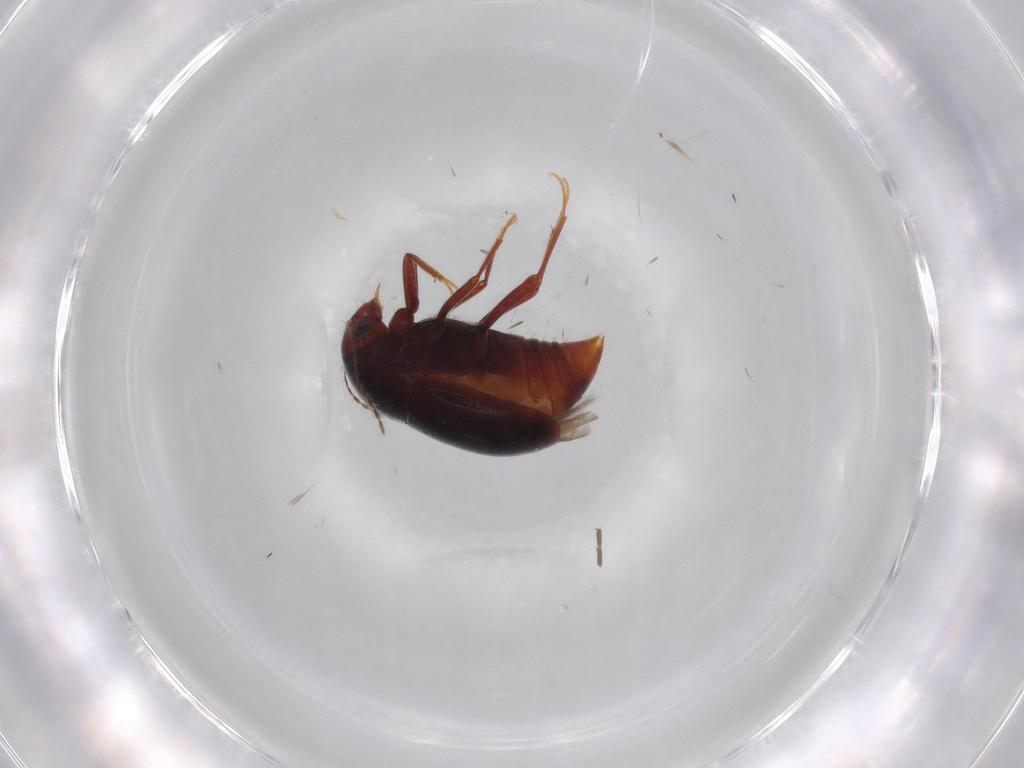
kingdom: Animalia
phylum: Arthropoda
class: Insecta
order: Coleoptera
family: Staphylinidae
